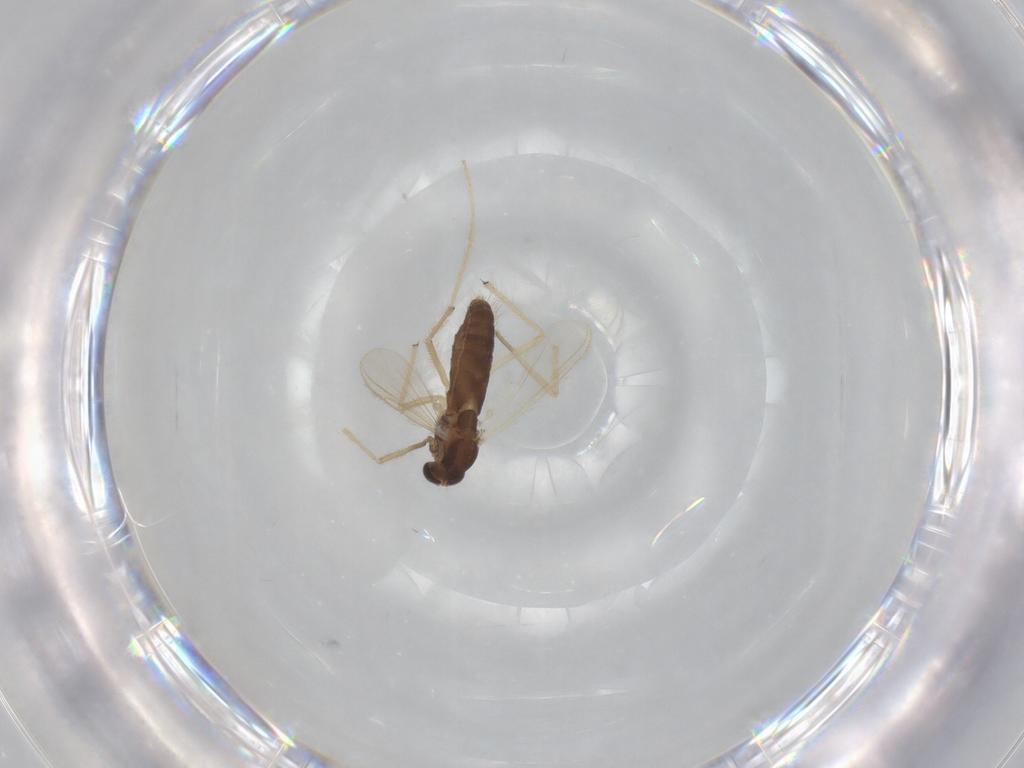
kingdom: Animalia
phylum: Arthropoda
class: Insecta
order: Diptera
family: Chironomidae
